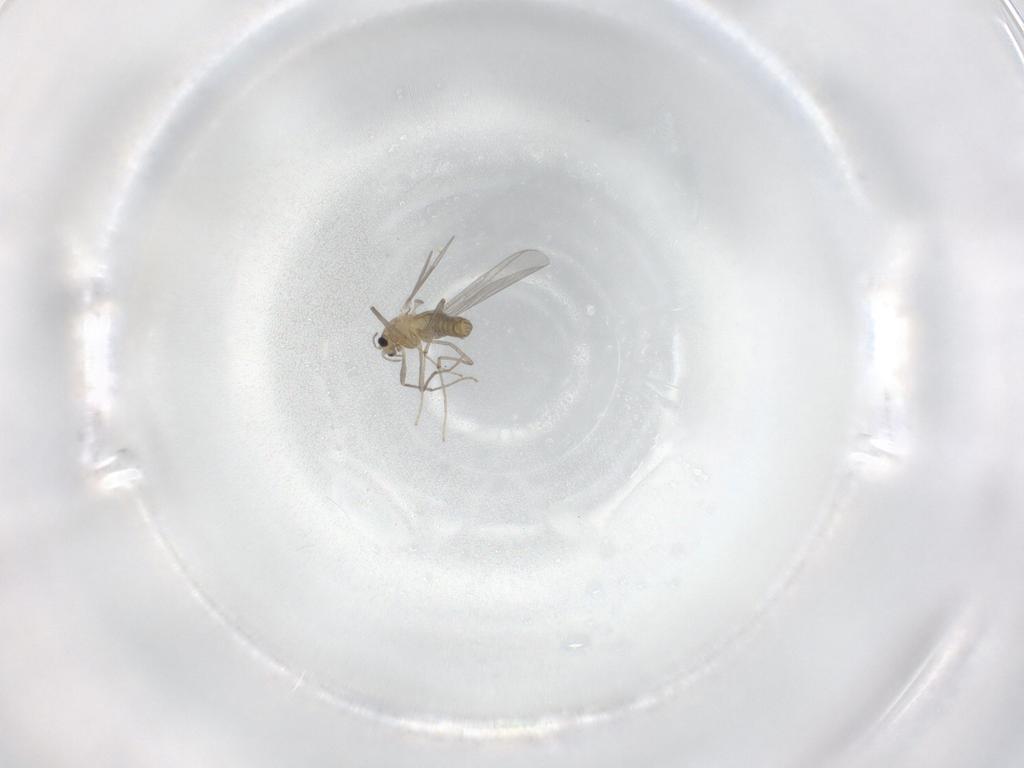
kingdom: Animalia
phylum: Arthropoda
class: Insecta
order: Diptera
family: Chironomidae
